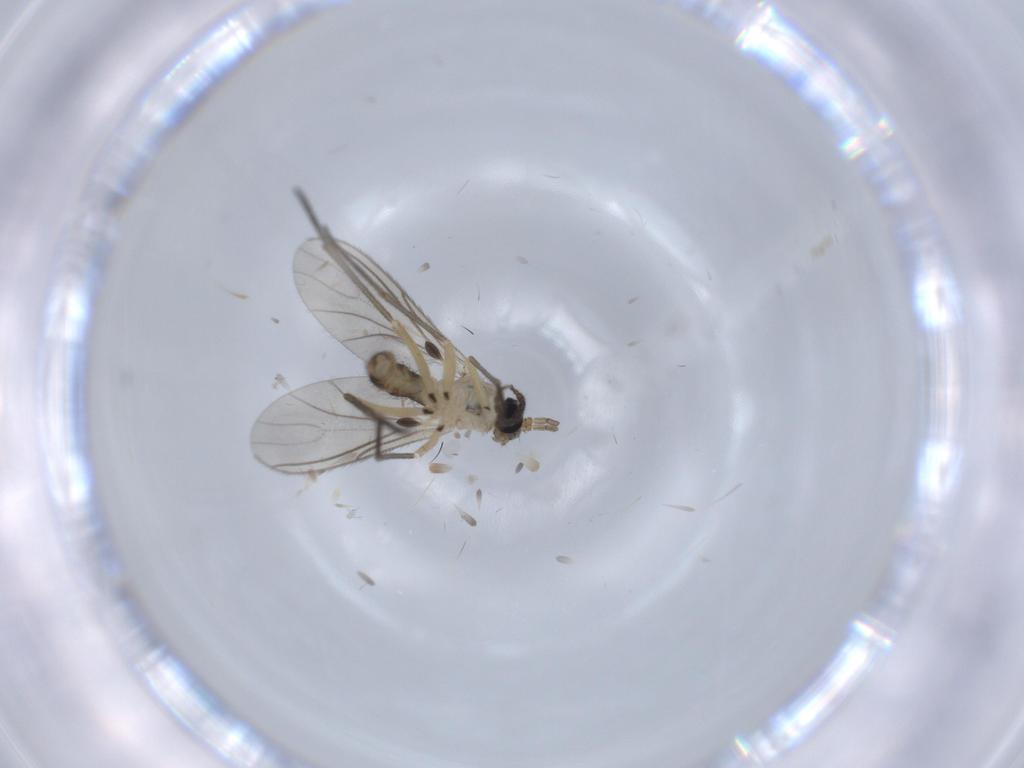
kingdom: Animalia
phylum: Arthropoda
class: Insecta
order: Diptera
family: Sciaridae
